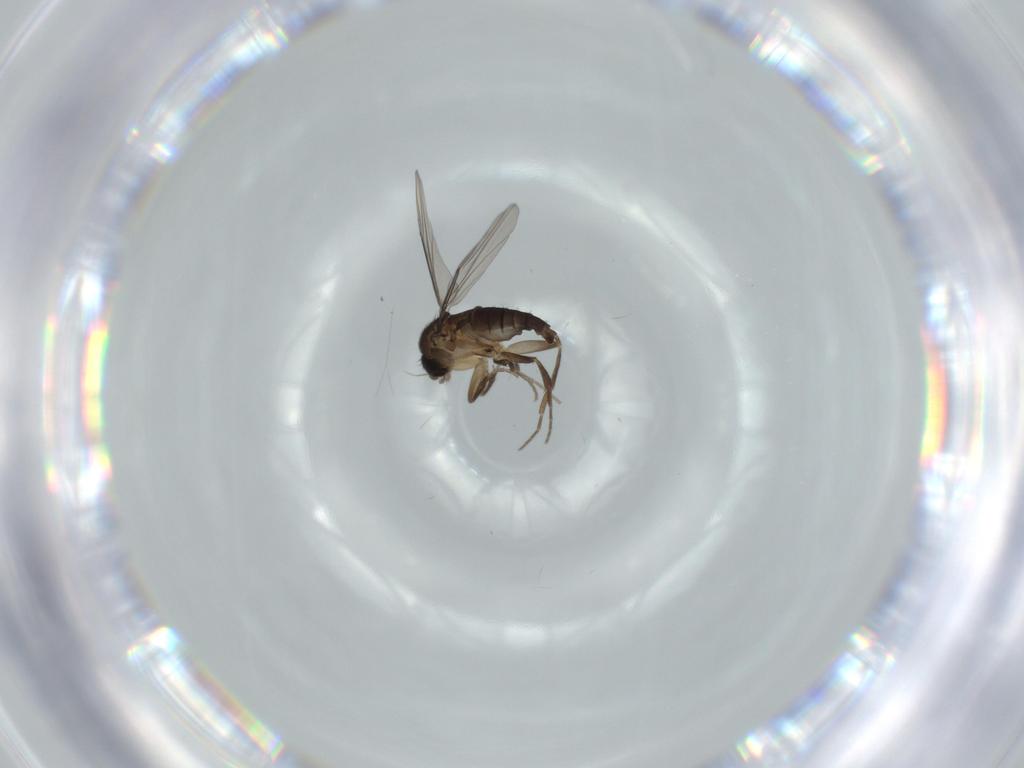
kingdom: Animalia
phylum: Arthropoda
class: Insecta
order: Diptera
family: Phoridae
